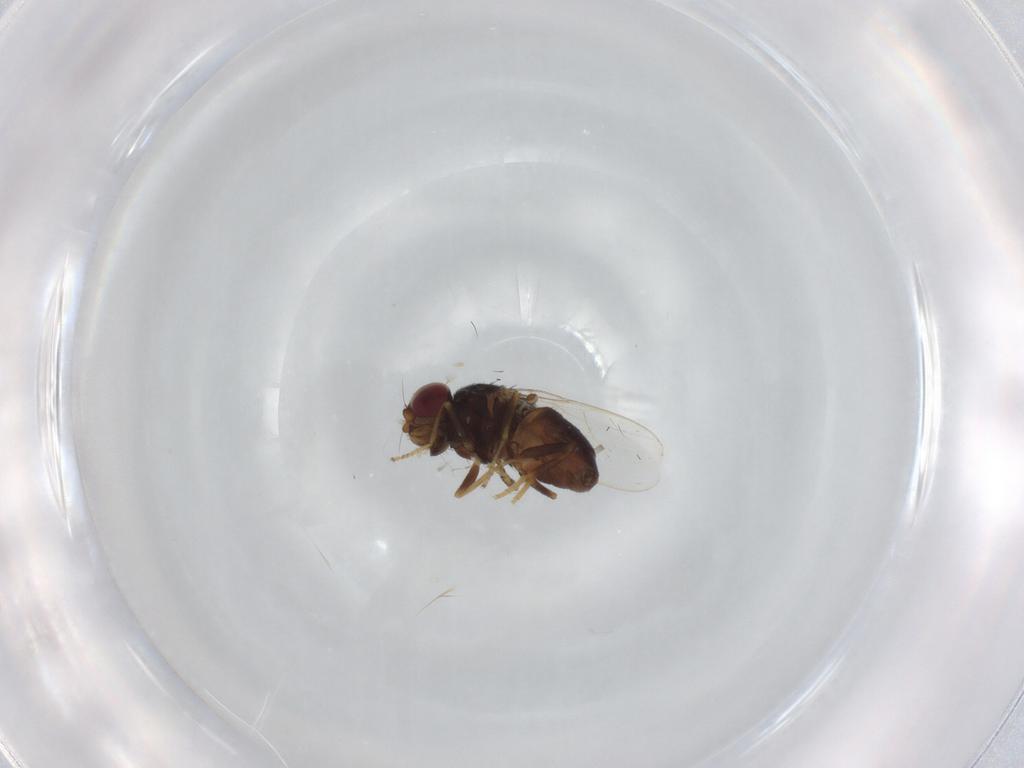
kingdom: Animalia
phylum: Arthropoda
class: Insecta
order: Diptera
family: Chloropidae
